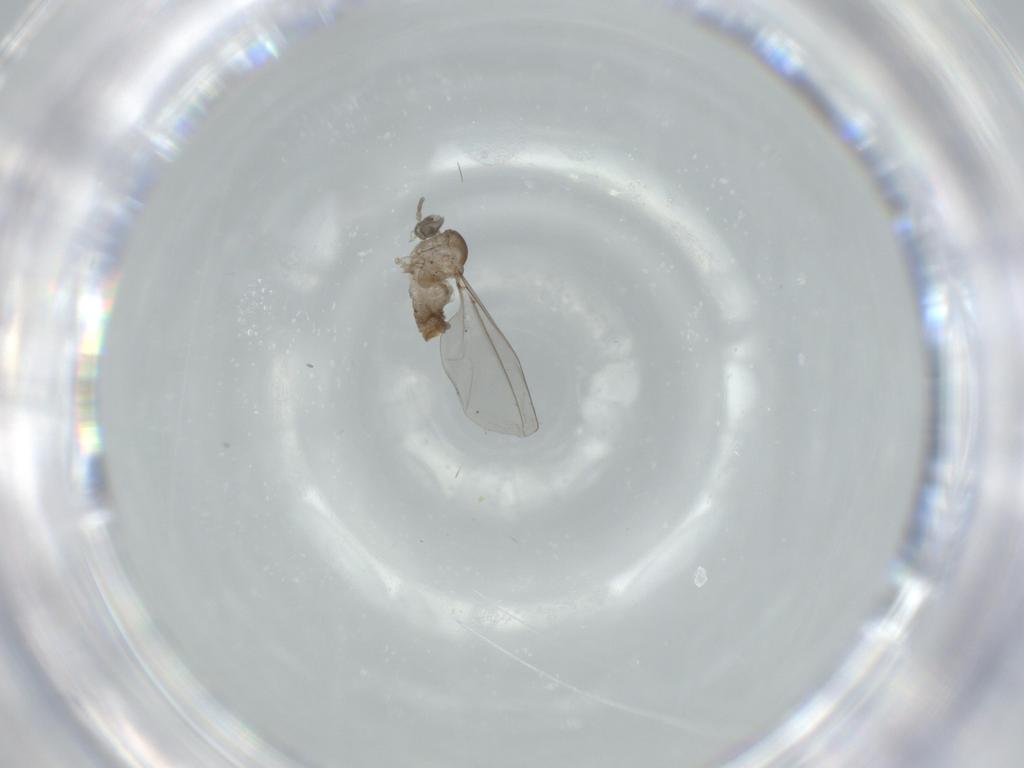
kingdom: Animalia
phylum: Arthropoda
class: Insecta
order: Diptera
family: Cecidomyiidae
